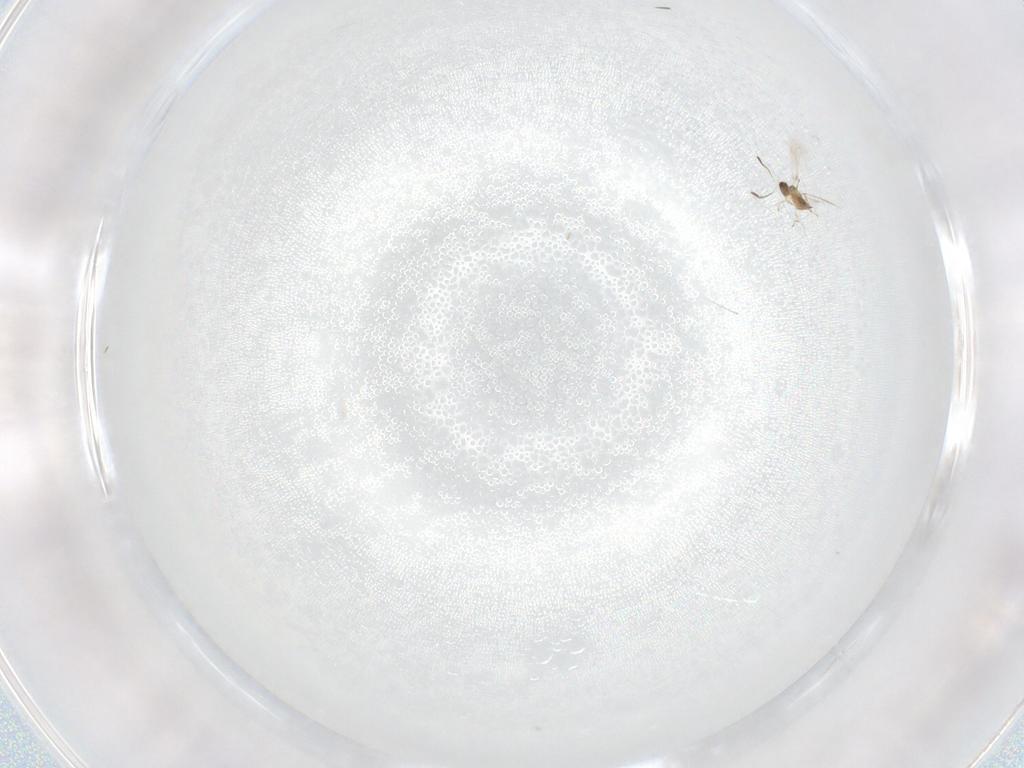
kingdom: Animalia
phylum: Arthropoda
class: Insecta
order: Hymenoptera
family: Mymaridae
